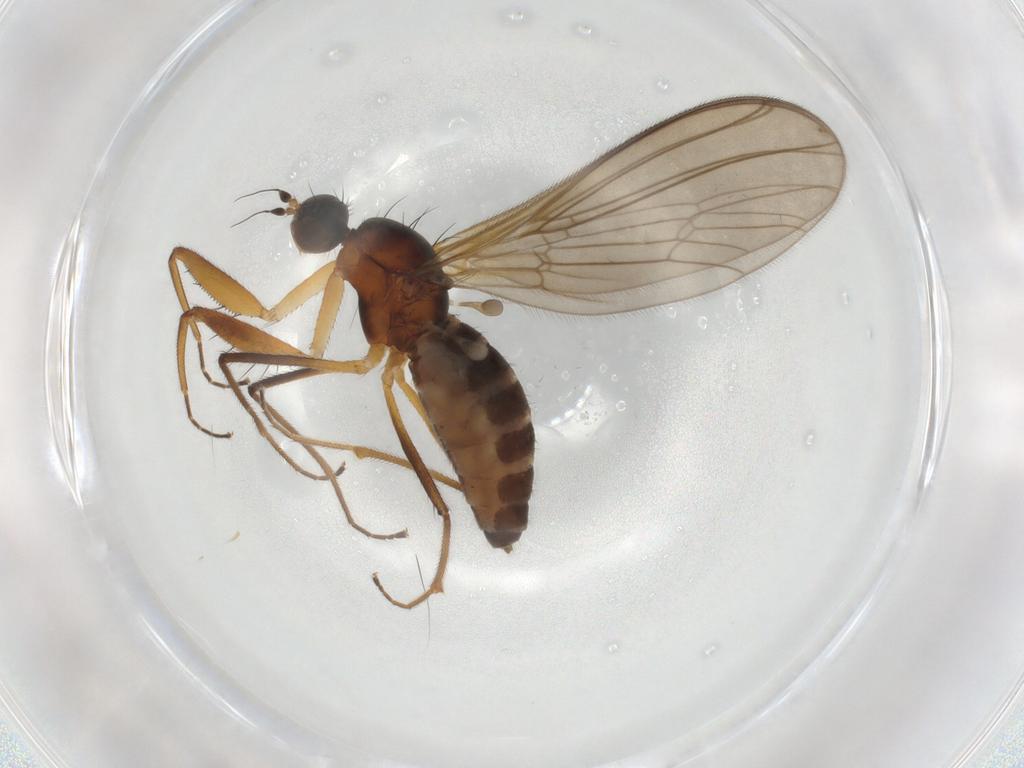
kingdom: Animalia
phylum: Arthropoda
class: Insecta
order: Diptera
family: Empididae
